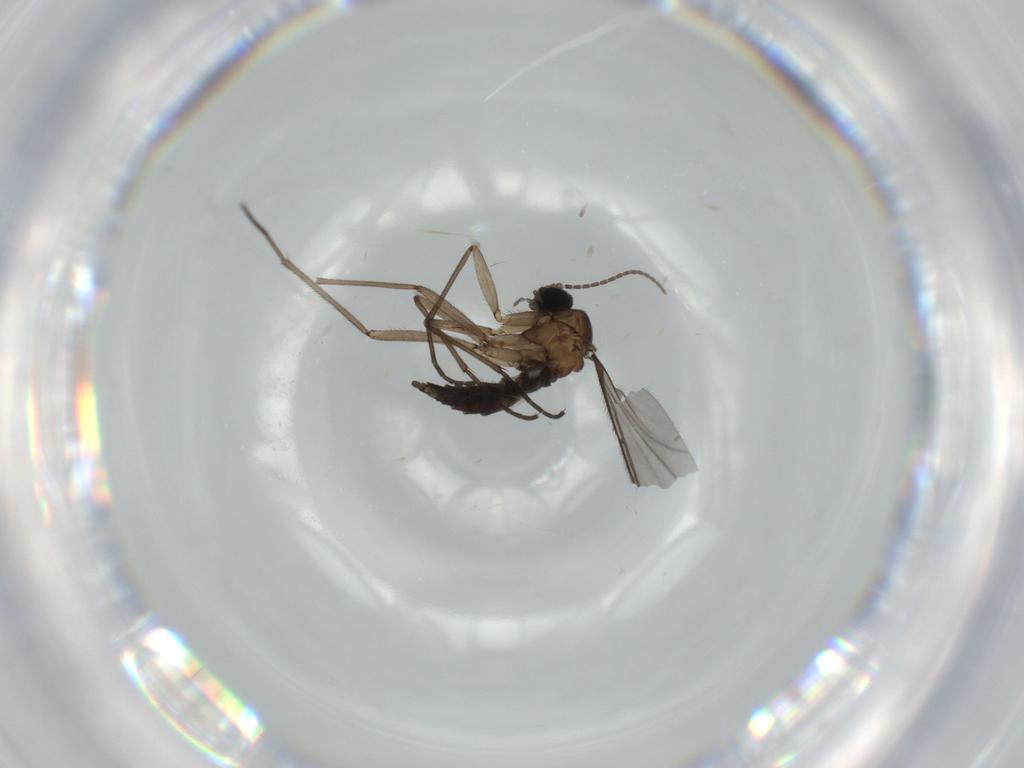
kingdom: Animalia
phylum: Arthropoda
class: Insecta
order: Diptera
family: Sciaridae
